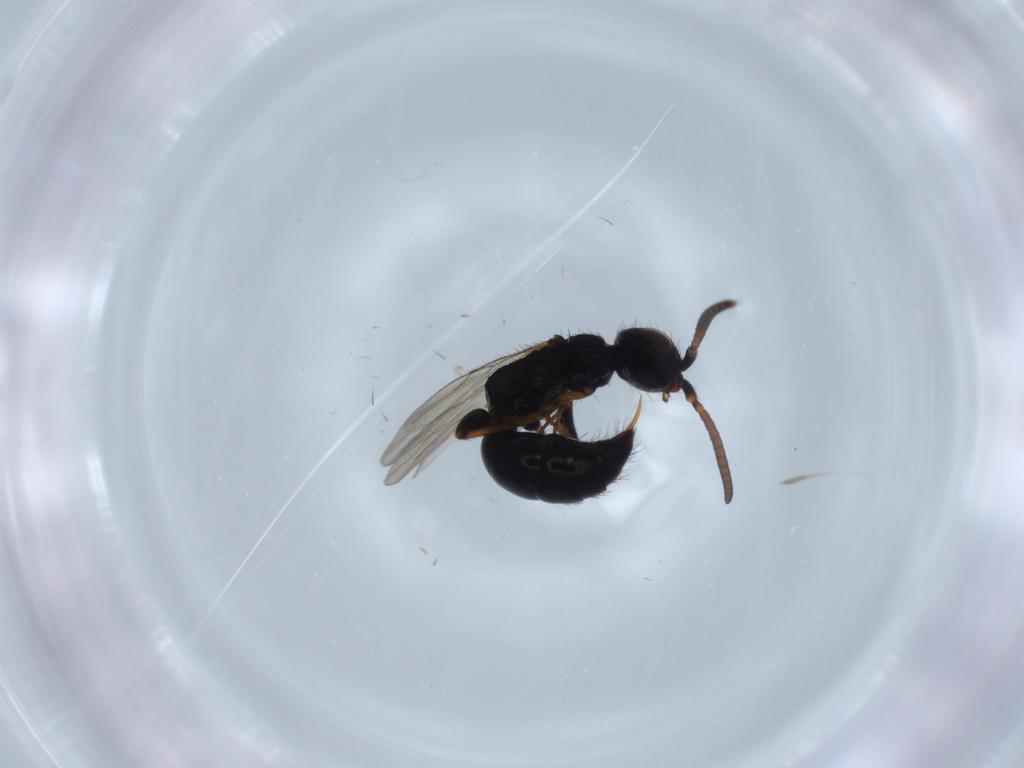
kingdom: Animalia
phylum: Arthropoda
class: Insecta
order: Hymenoptera
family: Bethylidae
